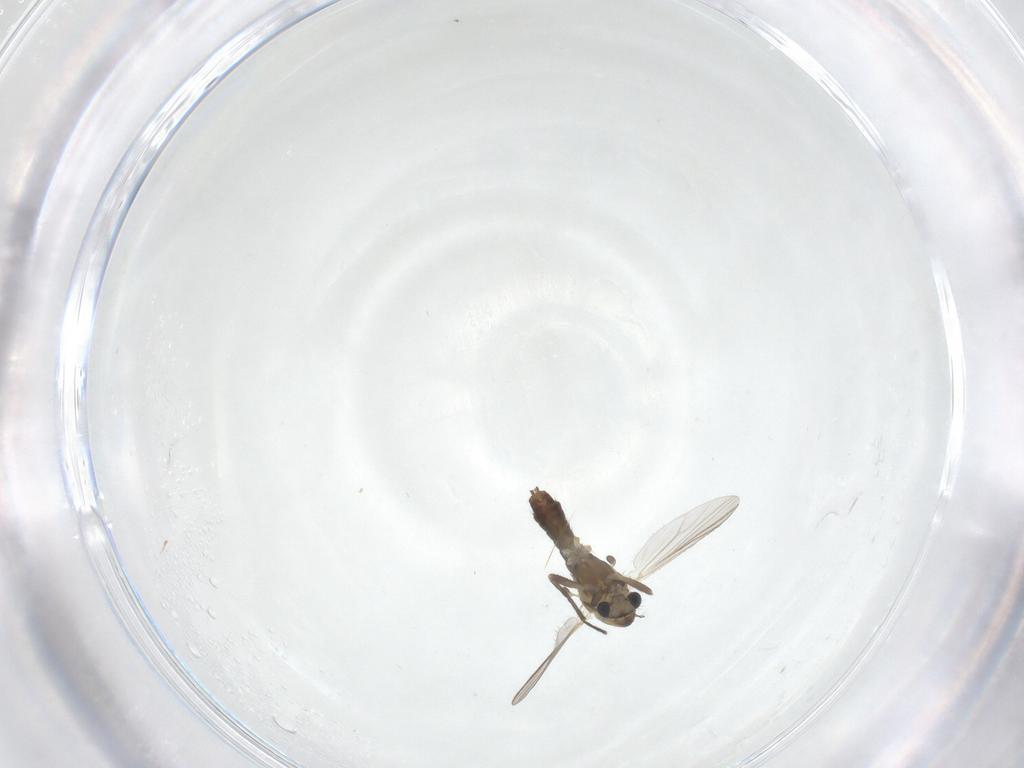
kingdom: Animalia
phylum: Arthropoda
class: Insecta
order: Diptera
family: Chironomidae
